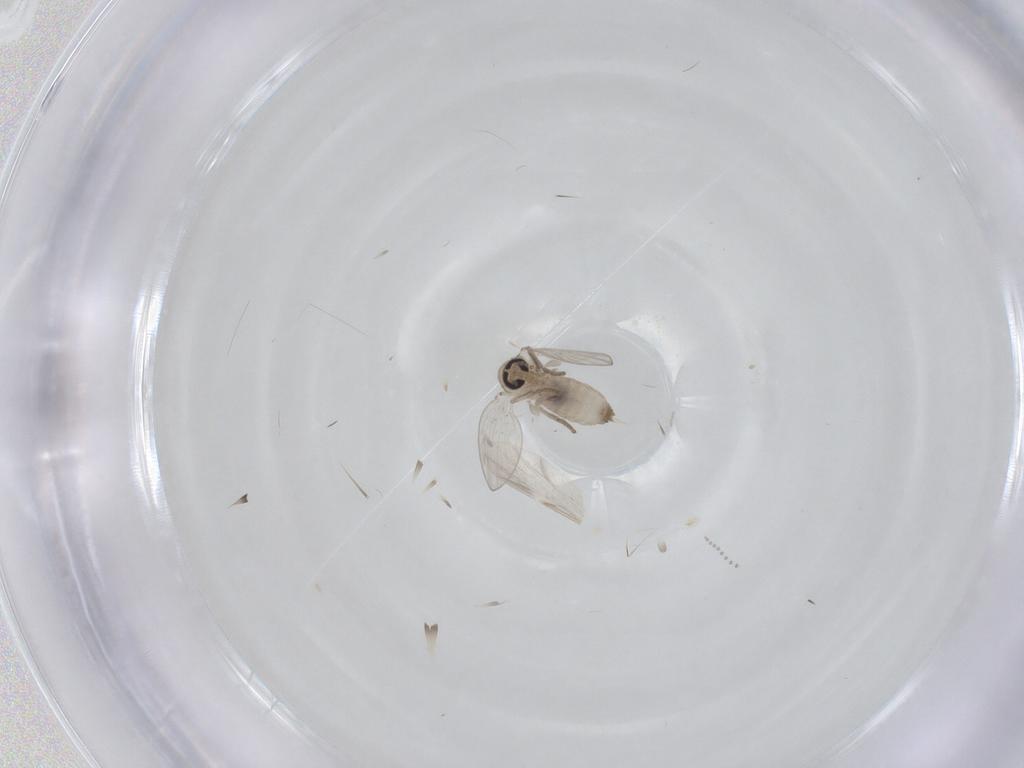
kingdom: Animalia
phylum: Arthropoda
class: Insecta
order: Diptera
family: Psychodidae
